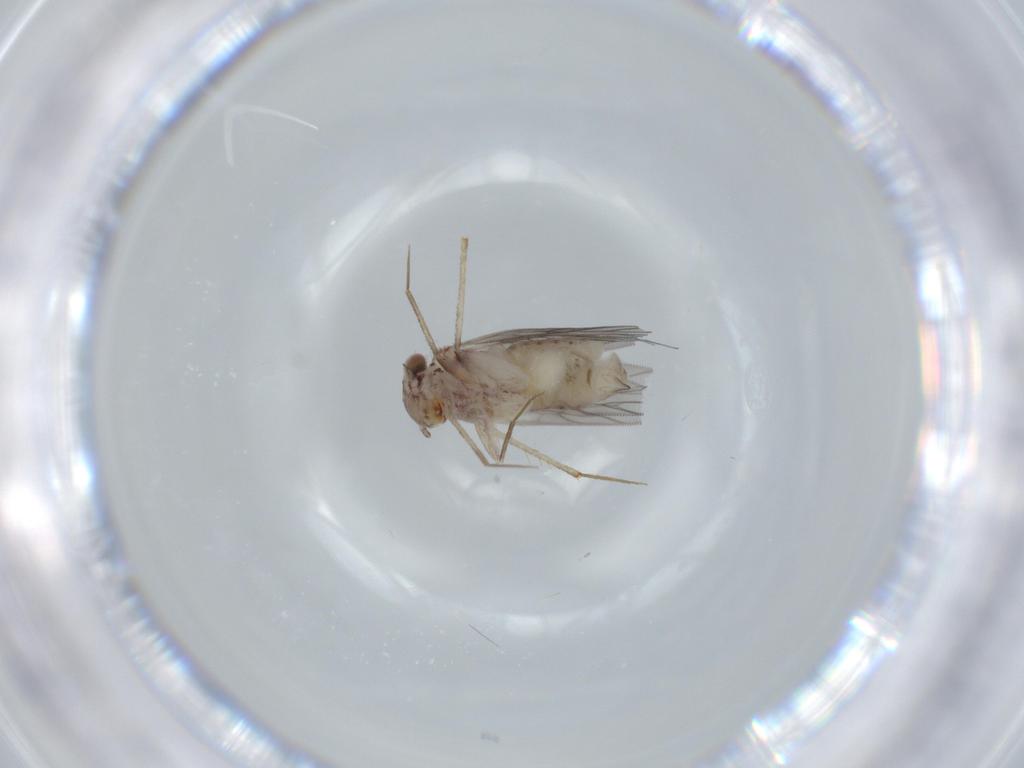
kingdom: Animalia
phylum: Arthropoda
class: Insecta
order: Psocodea
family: Lepidopsocidae
